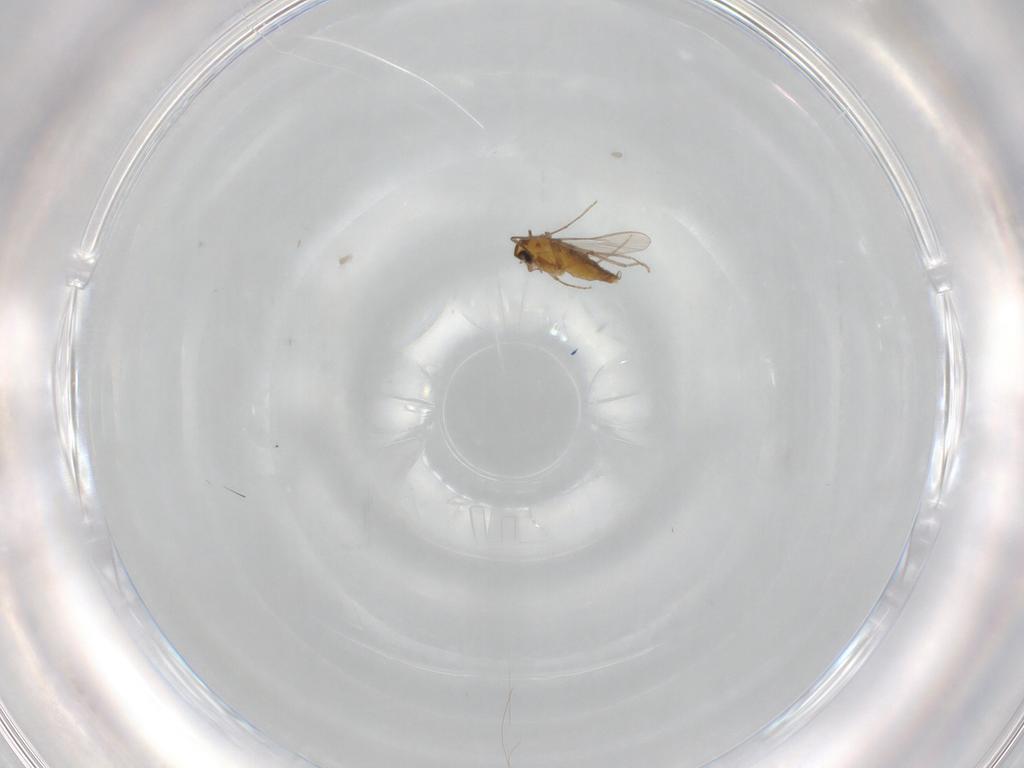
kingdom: Animalia
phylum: Arthropoda
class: Insecta
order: Diptera
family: Chironomidae
